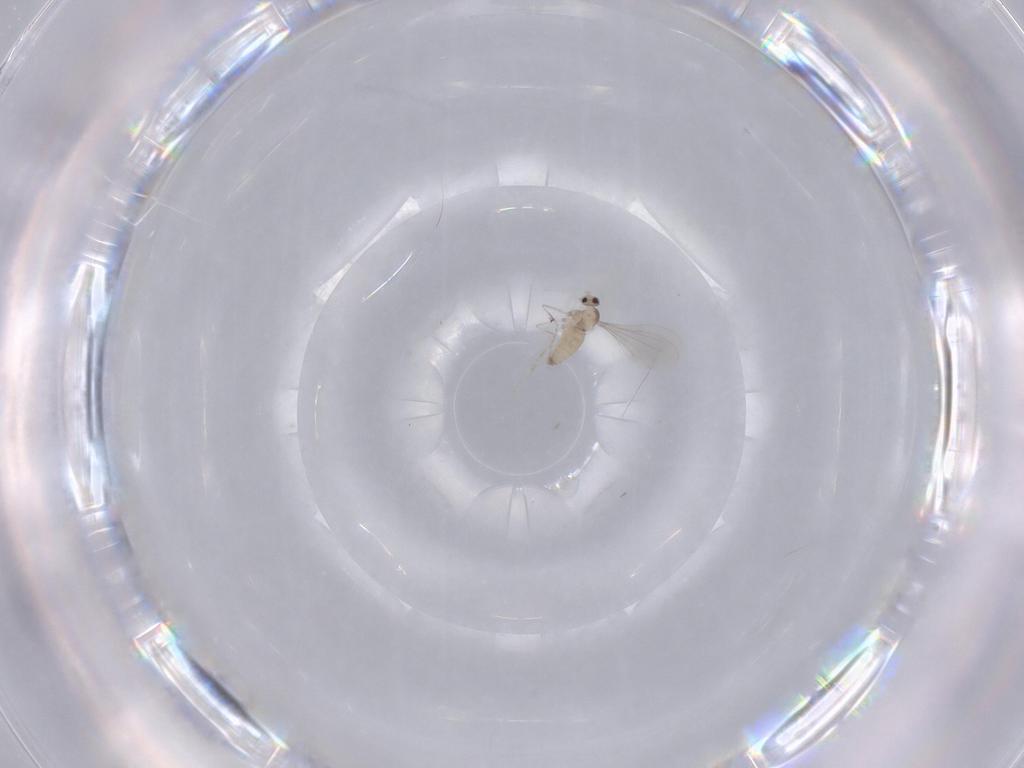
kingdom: Animalia
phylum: Arthropoda
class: Insecta
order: Diptera
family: Cecidomyiidae
